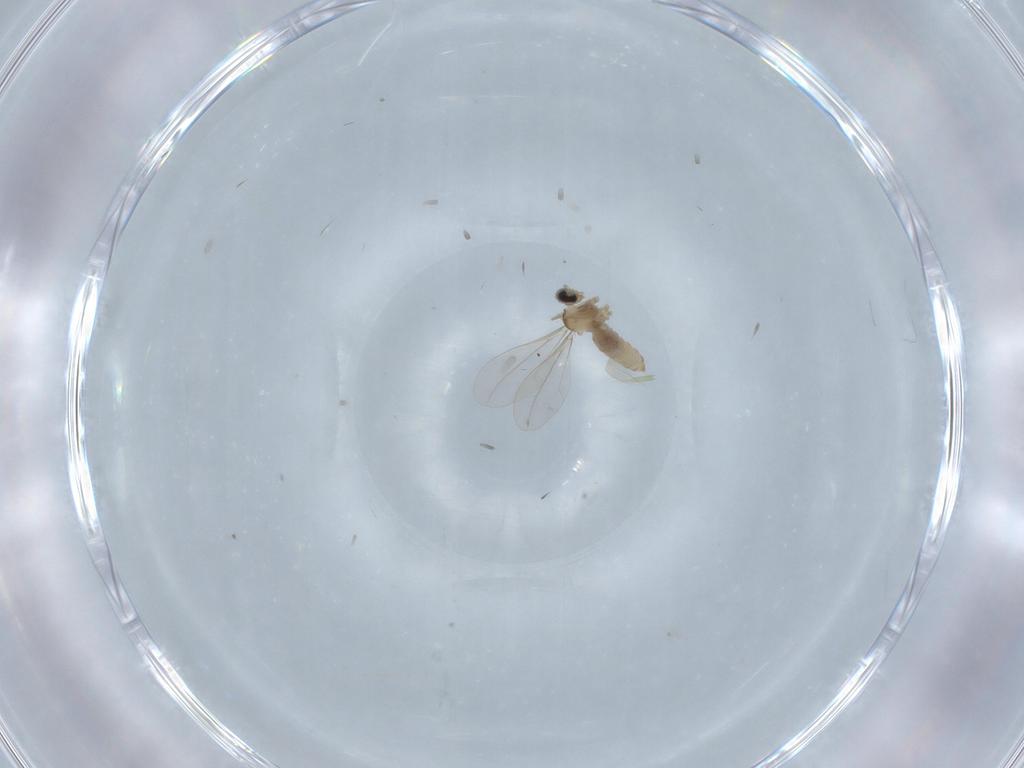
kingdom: Animalia
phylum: Arthropoda
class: Insecta
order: Diptera
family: Cecidomyiidae
